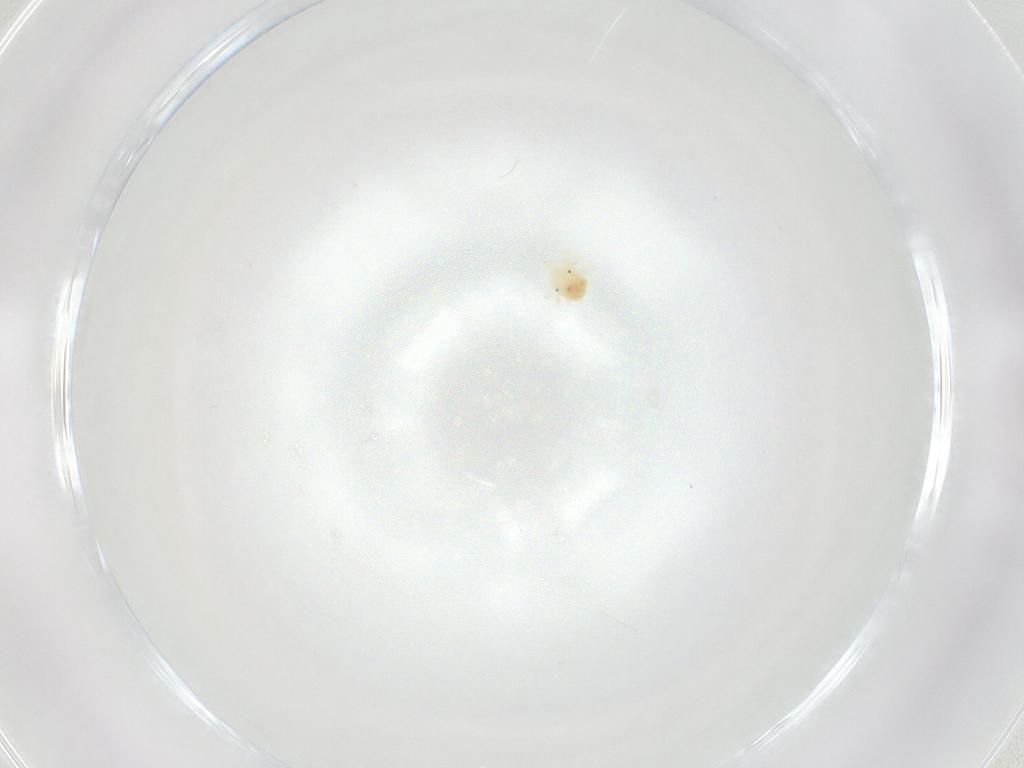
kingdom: Animalia
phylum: Arthropoda
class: Arachnida
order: Trombidiformes
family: Anystidae
